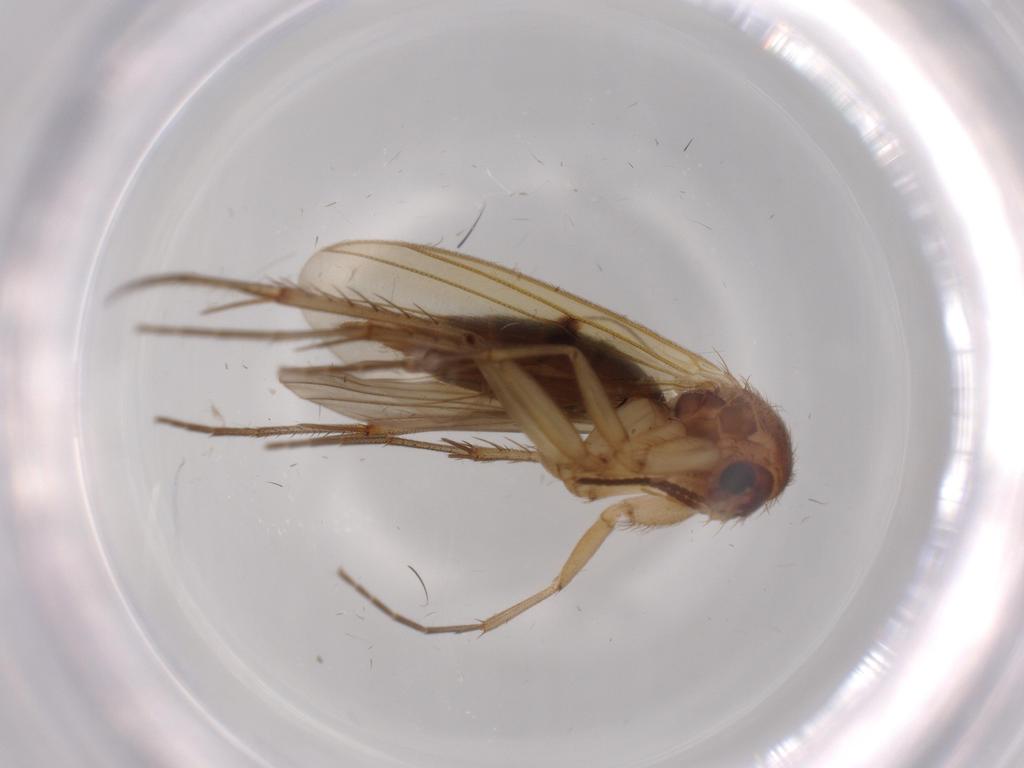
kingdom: Animalia
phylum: Arthropoda
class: Insecta
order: Diptera
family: Mycetophilidae
